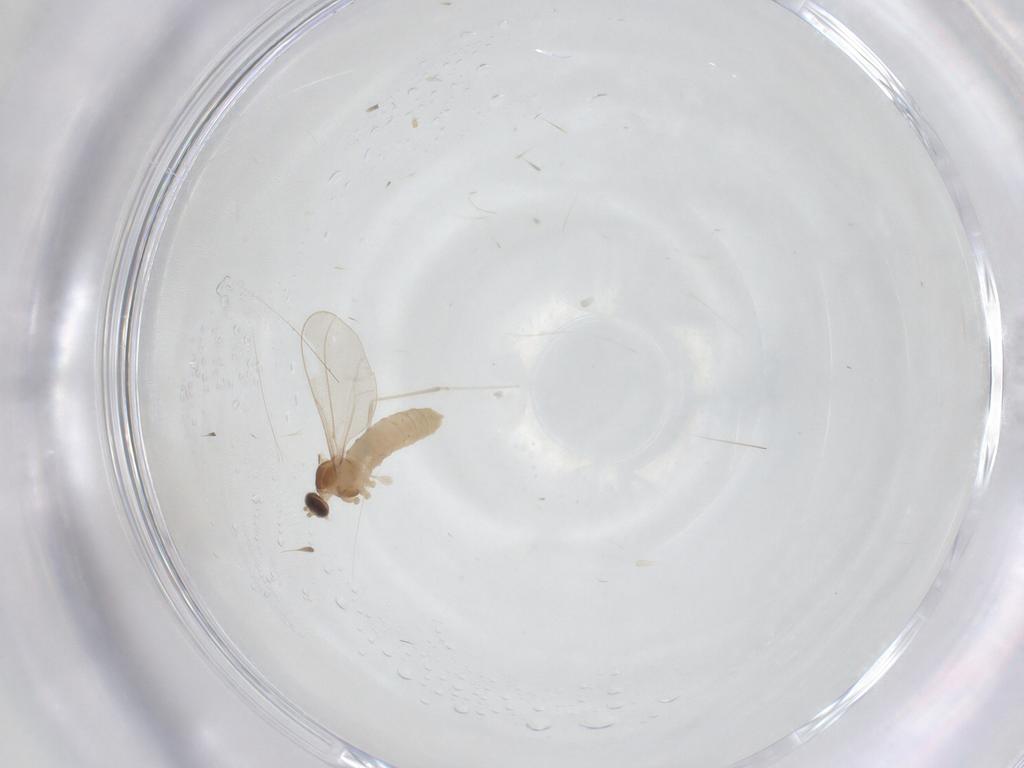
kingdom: Animalia
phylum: Arthropoda
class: Insecta
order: Diptera
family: Cecidomyiidae
